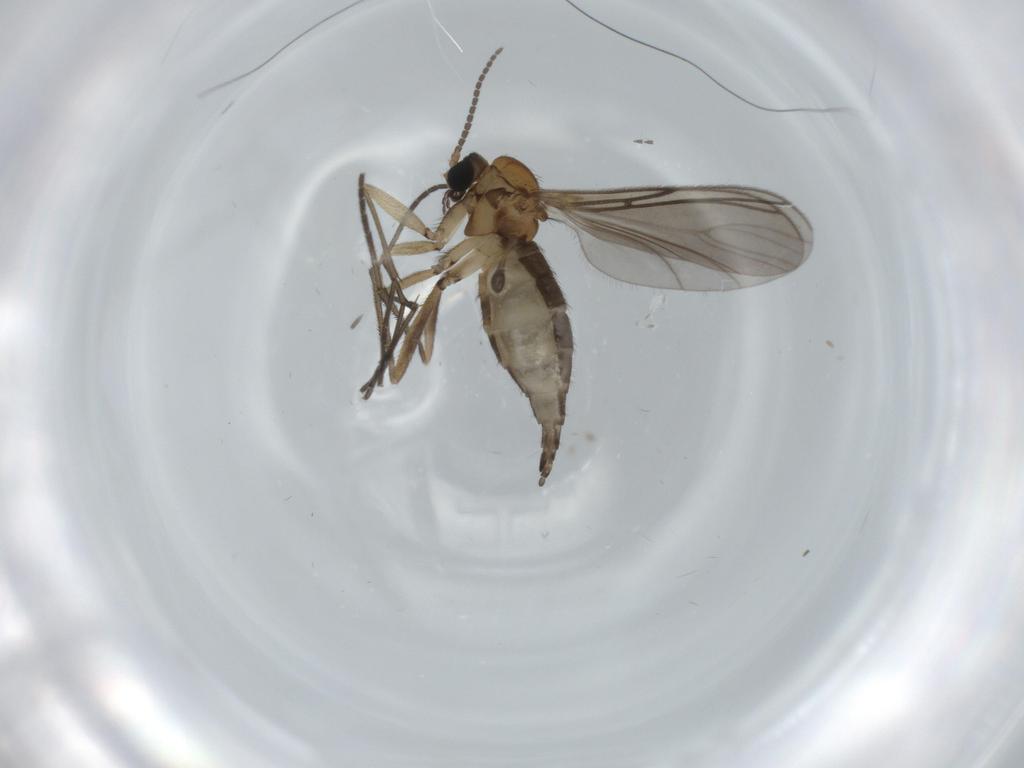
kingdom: Animalia
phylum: Arthropoda
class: Insecta
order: Diptera
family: Sciaridae
